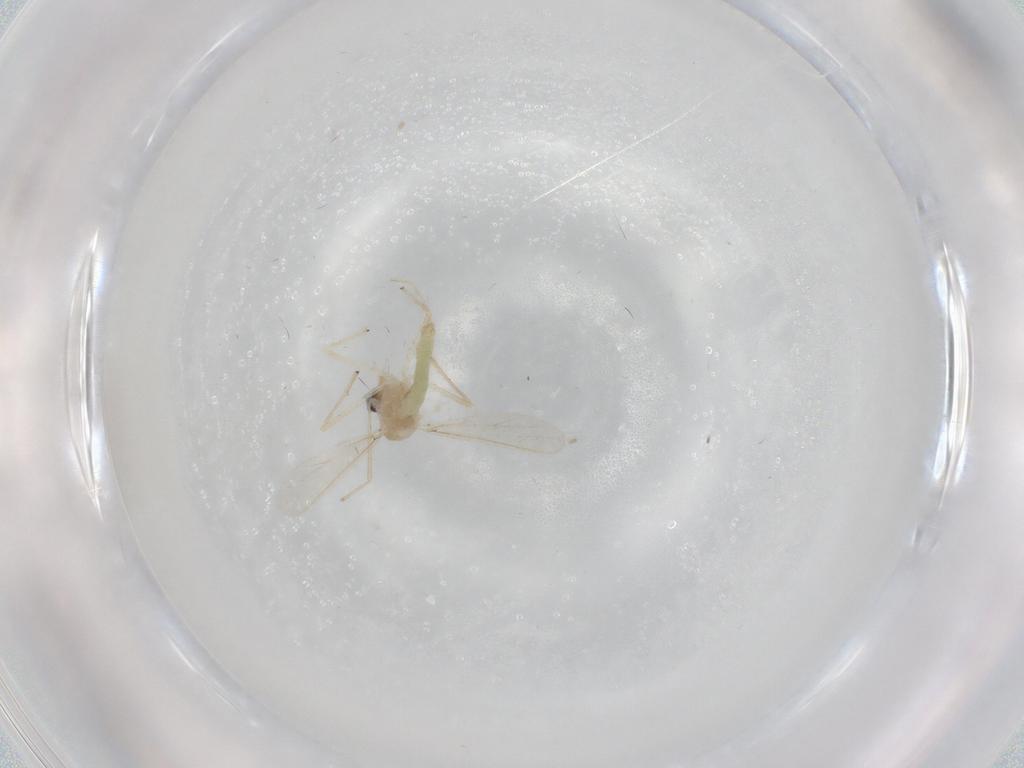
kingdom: Animalia
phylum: Arthropoda
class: Insecta
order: Diptera
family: Chironomidae
